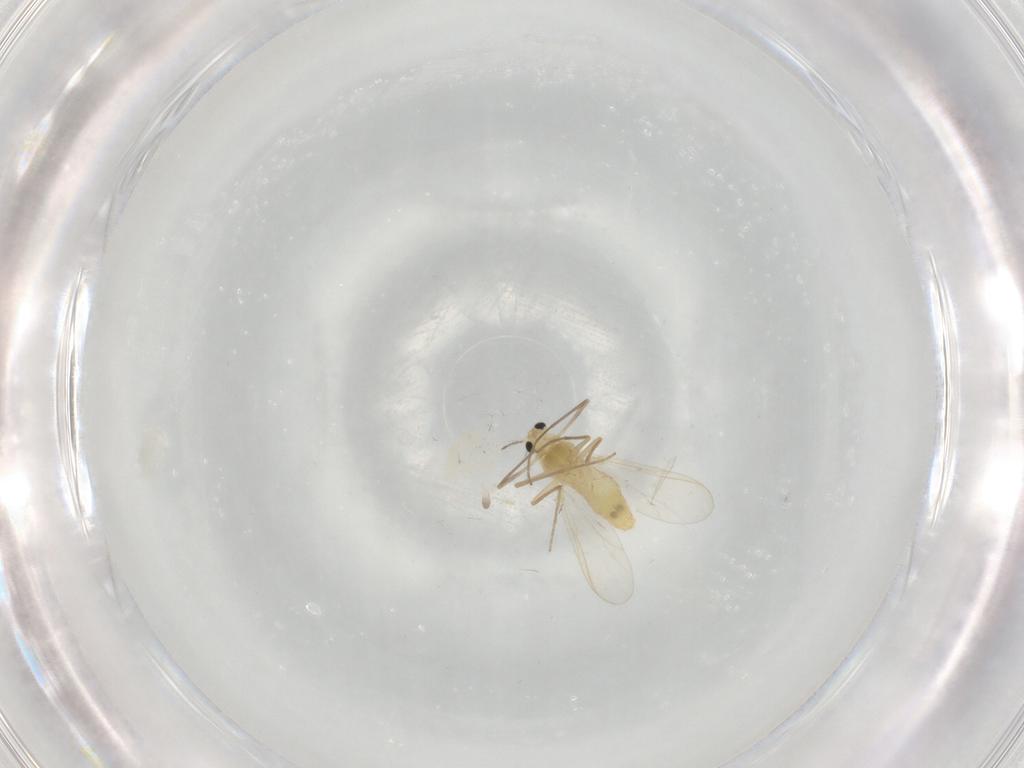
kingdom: Animalia
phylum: Arthropoda
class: Insecta
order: Diptera
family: Chironomidae
